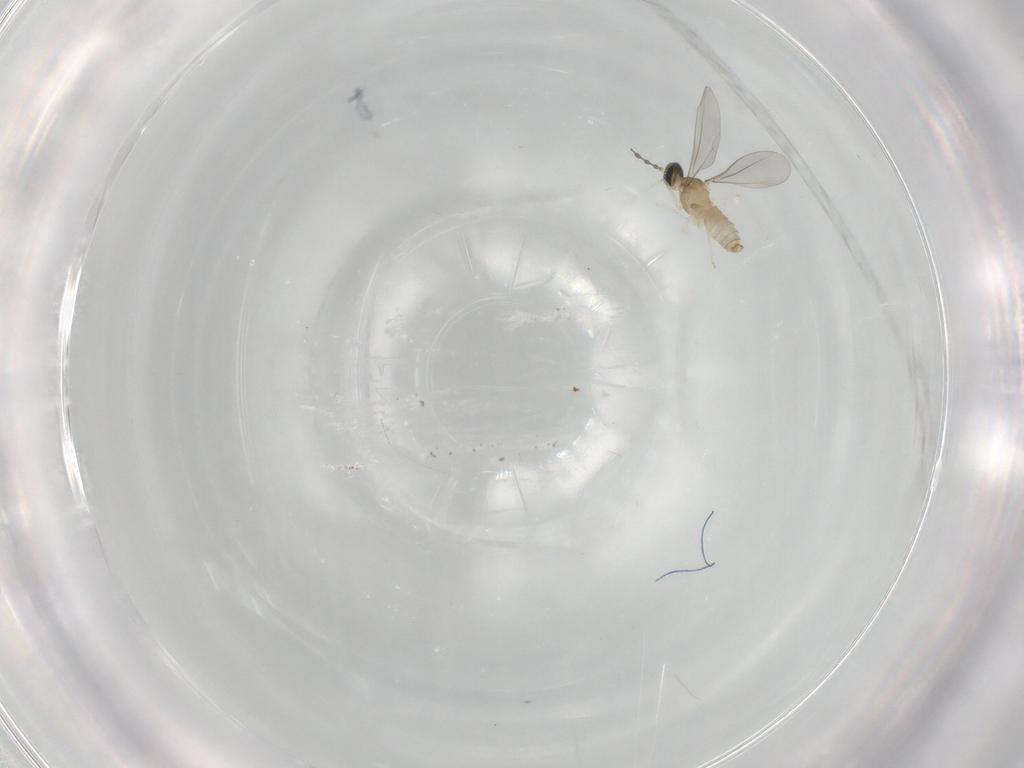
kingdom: Animalia
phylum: Arthropoda
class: Insecta
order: Diptera
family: Cecidomyiidae
